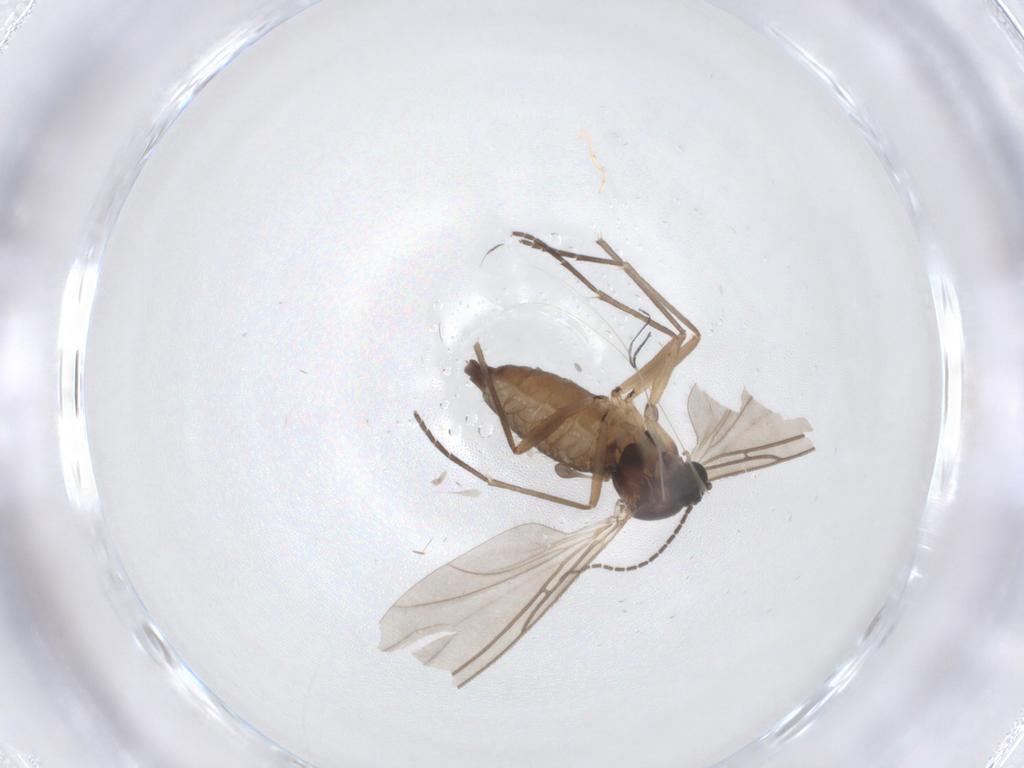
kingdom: Animalia
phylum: Arthropoda
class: Insecta
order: Diptera
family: Sciaridae
